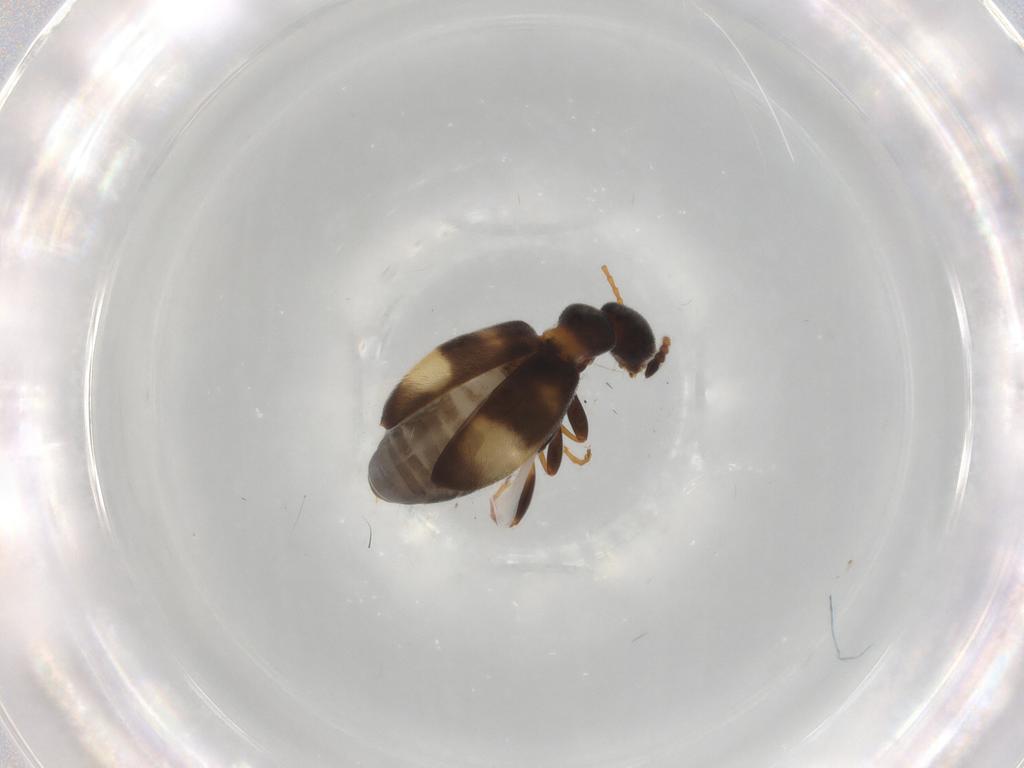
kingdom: Animalia
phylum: Arthropoda
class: Insecta
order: Coleoptera
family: Anthicidae
